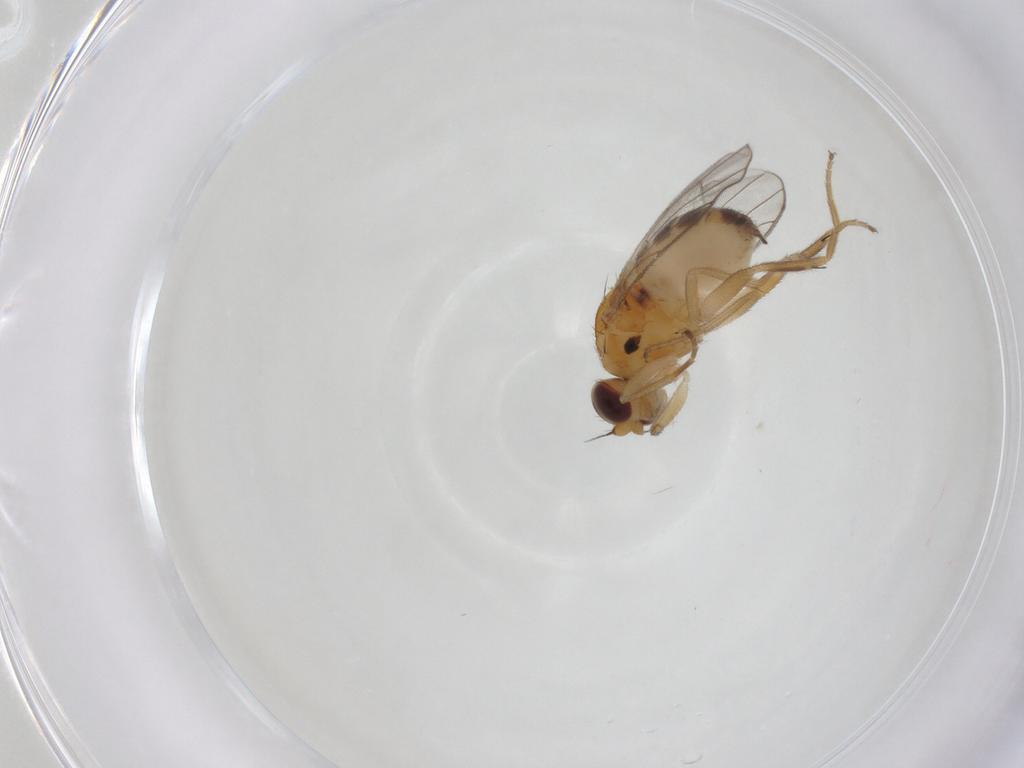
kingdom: Animalia
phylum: Arthropoda
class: Insecta
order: Diptera
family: Chloropidae
